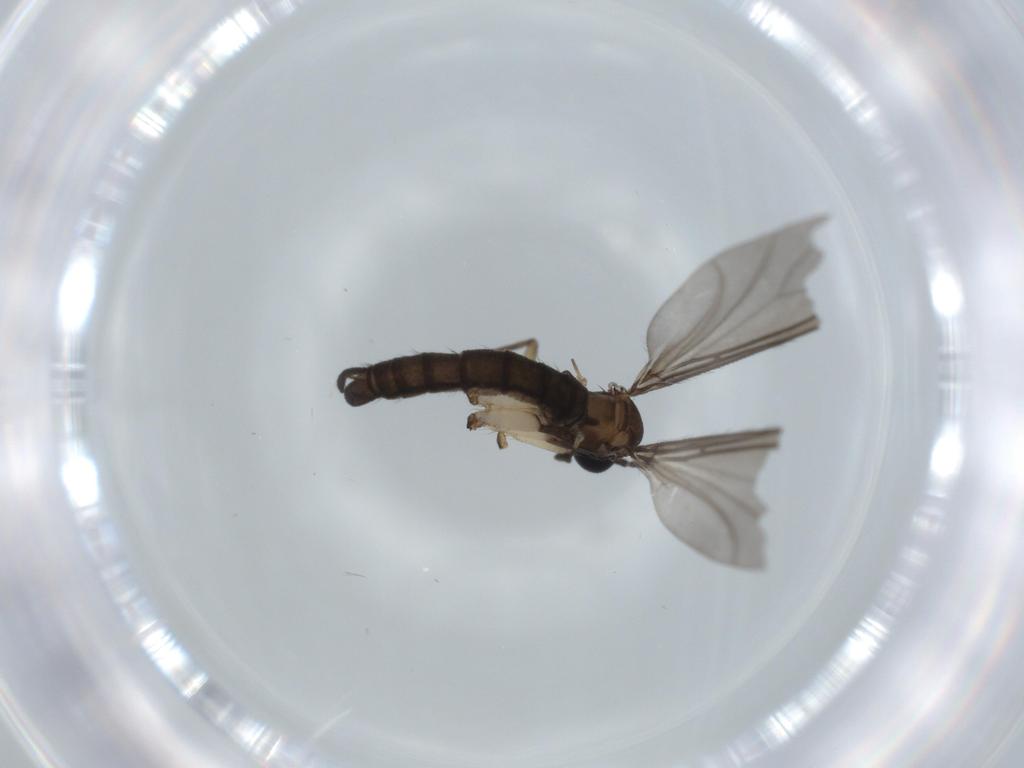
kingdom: Animalia
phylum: Arthropoda
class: Insecta
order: Diptera
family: Sciaridae
